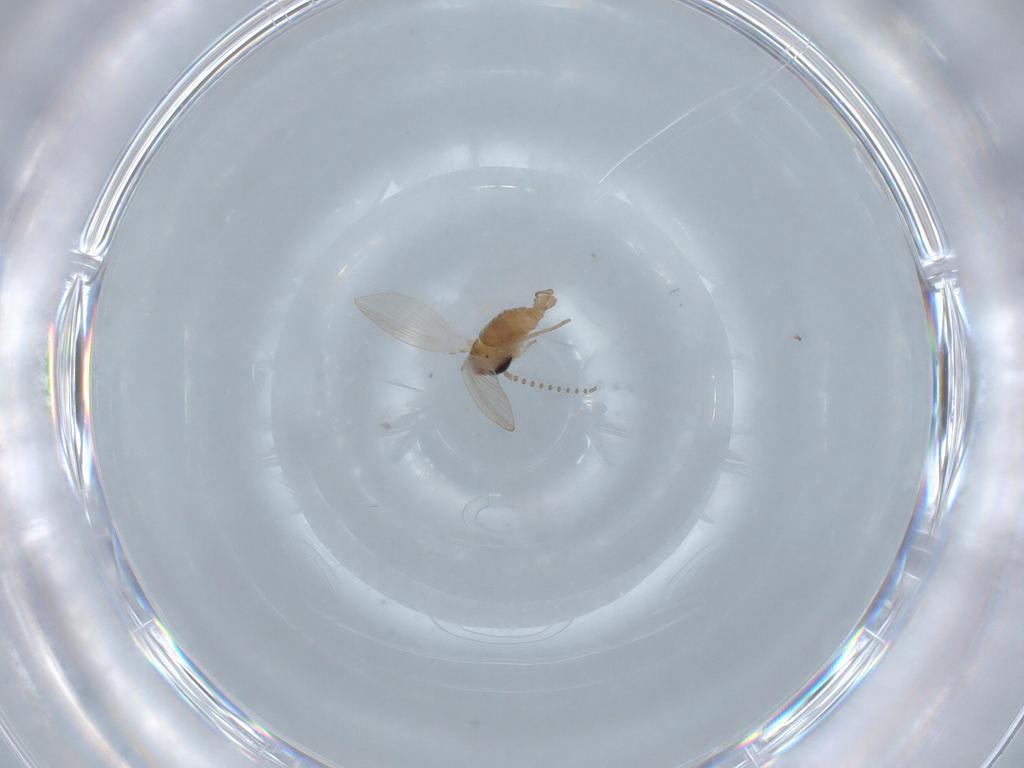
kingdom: Animalia
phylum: Arthropoda
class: Insecta
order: Diptera
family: Psychodidae
